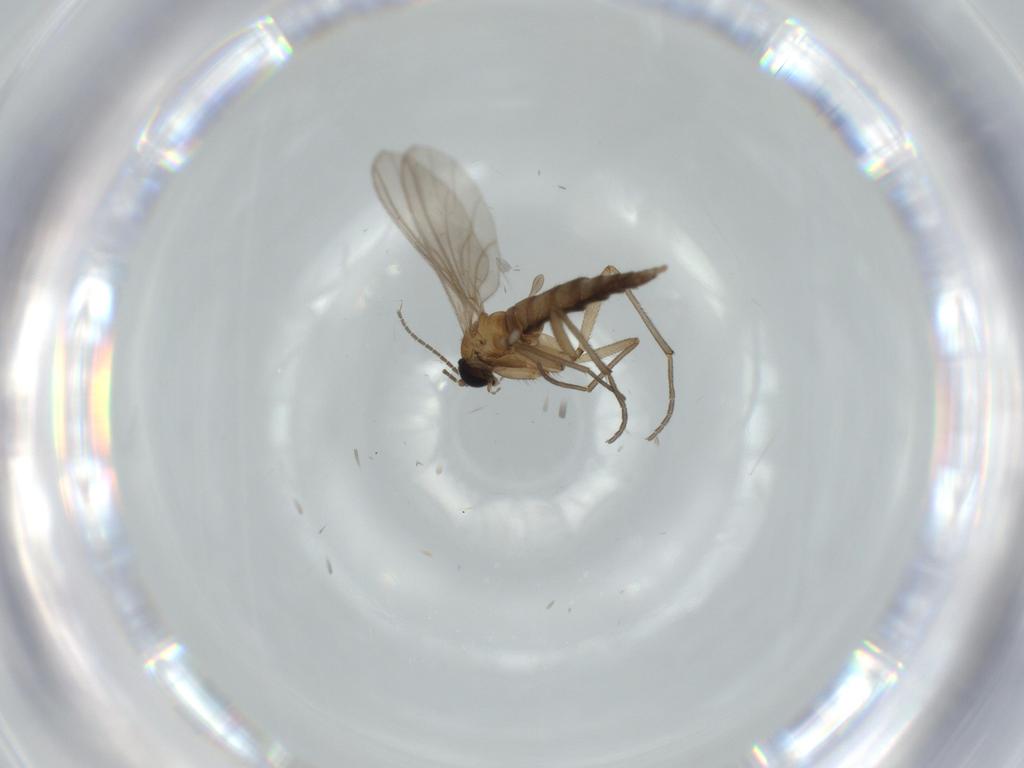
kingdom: Animalia
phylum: Arthropoda
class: Insecta
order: Diptera
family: Sciaridae
